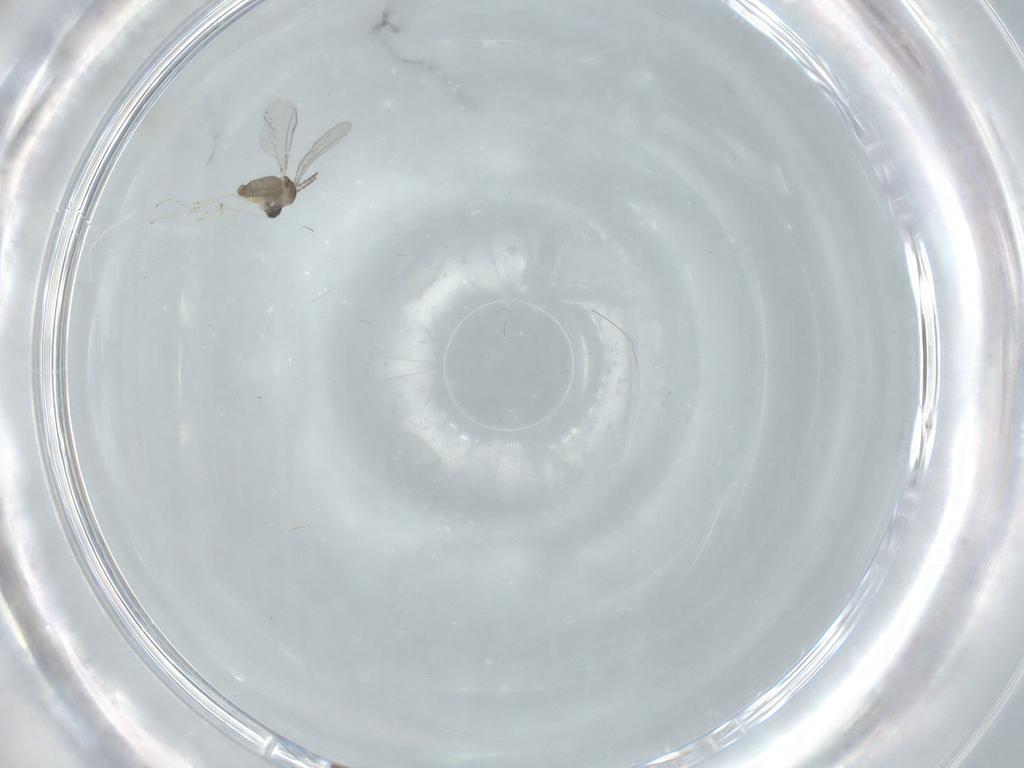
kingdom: Animalia
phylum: Arthropoda
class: Insecta
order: Diptera
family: Cecidomyiidae
